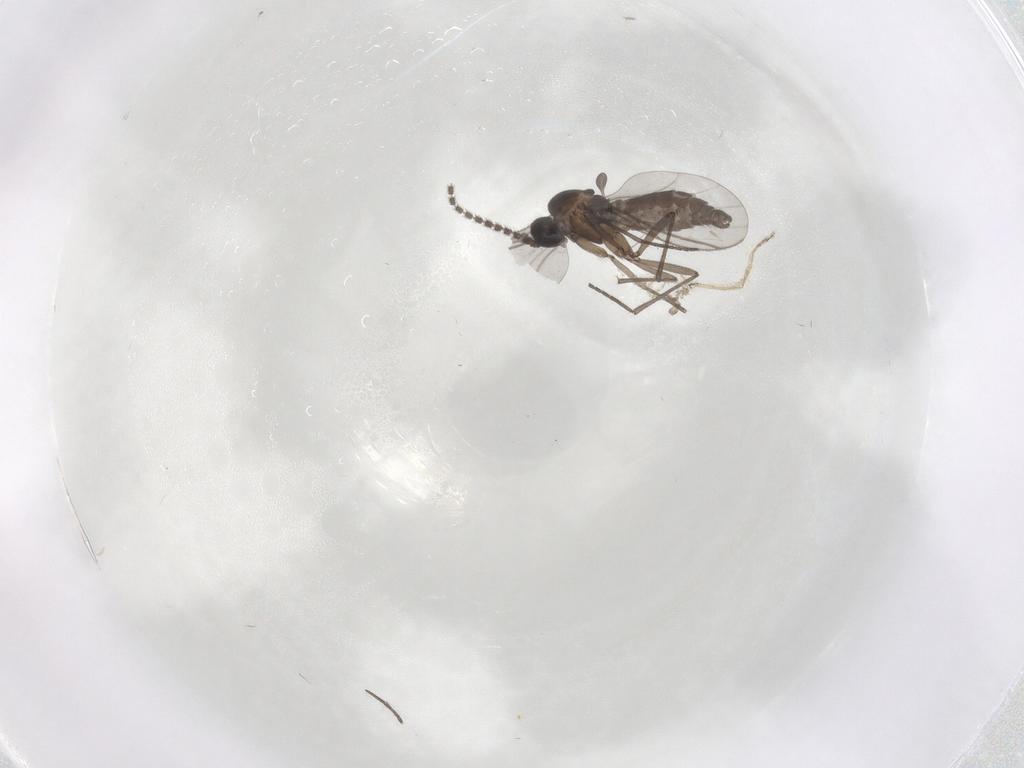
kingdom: Animalia
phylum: Arthropoda
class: Insecta
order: Diptera
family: Sciaridae
